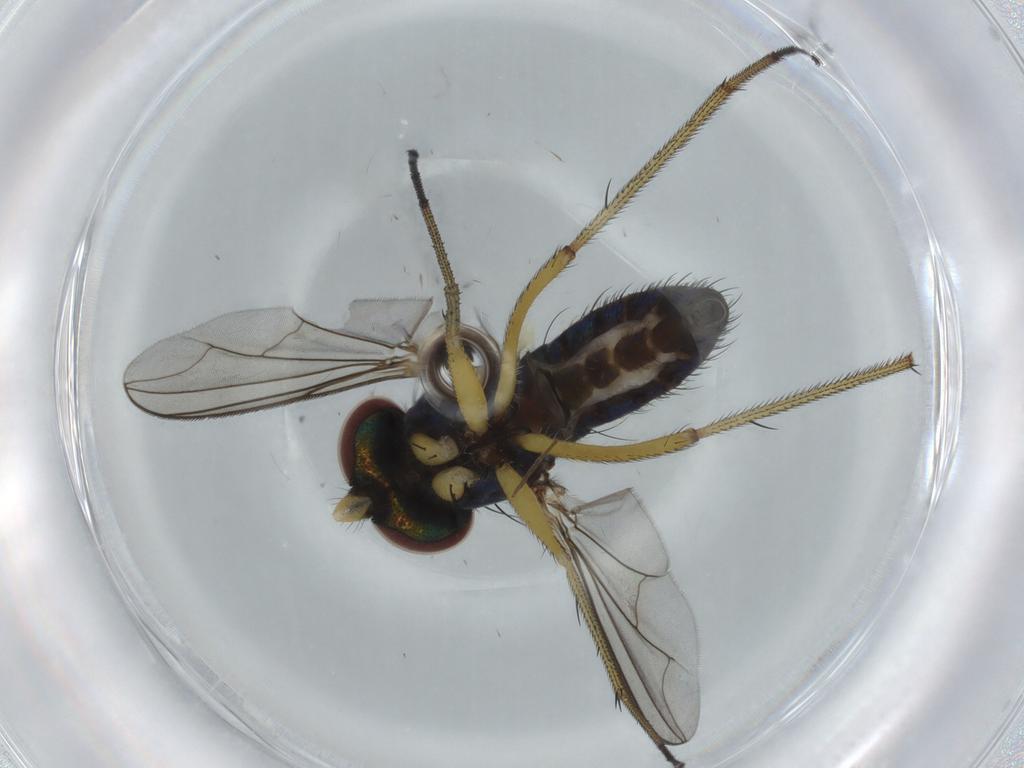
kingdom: Animalia
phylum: Arthropoda
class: Insecta
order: Diptera
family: Dolichopodidae
